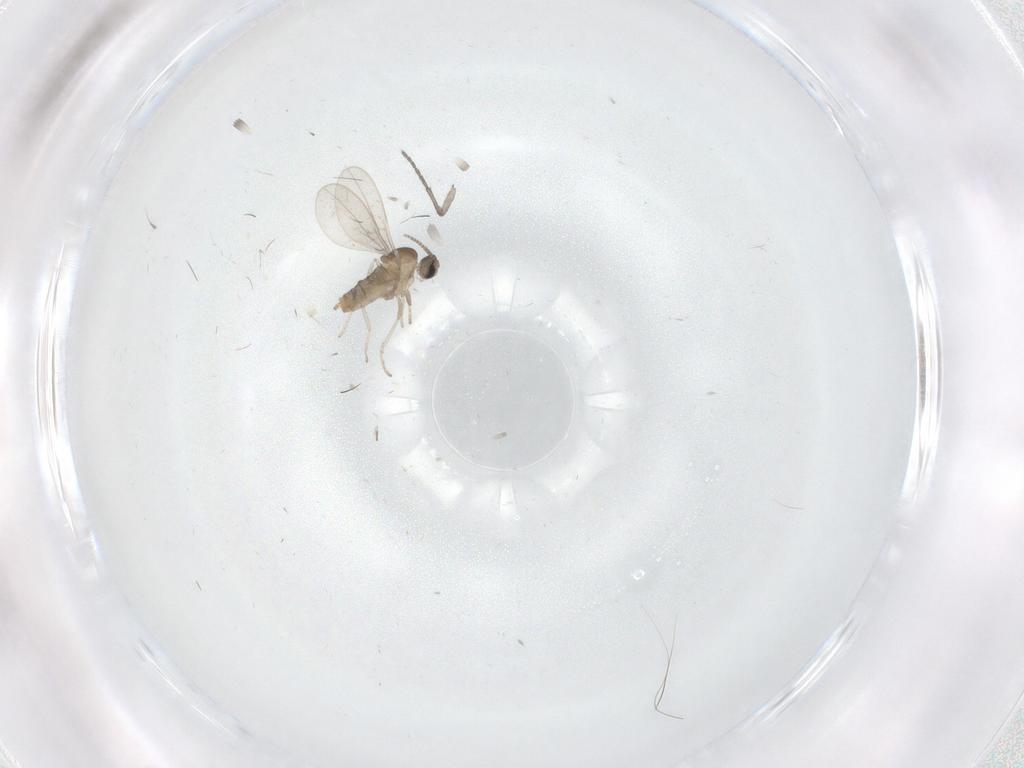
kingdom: Animalia
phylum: Arthropoda
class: Insecta
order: Diptera
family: Sciaridae
